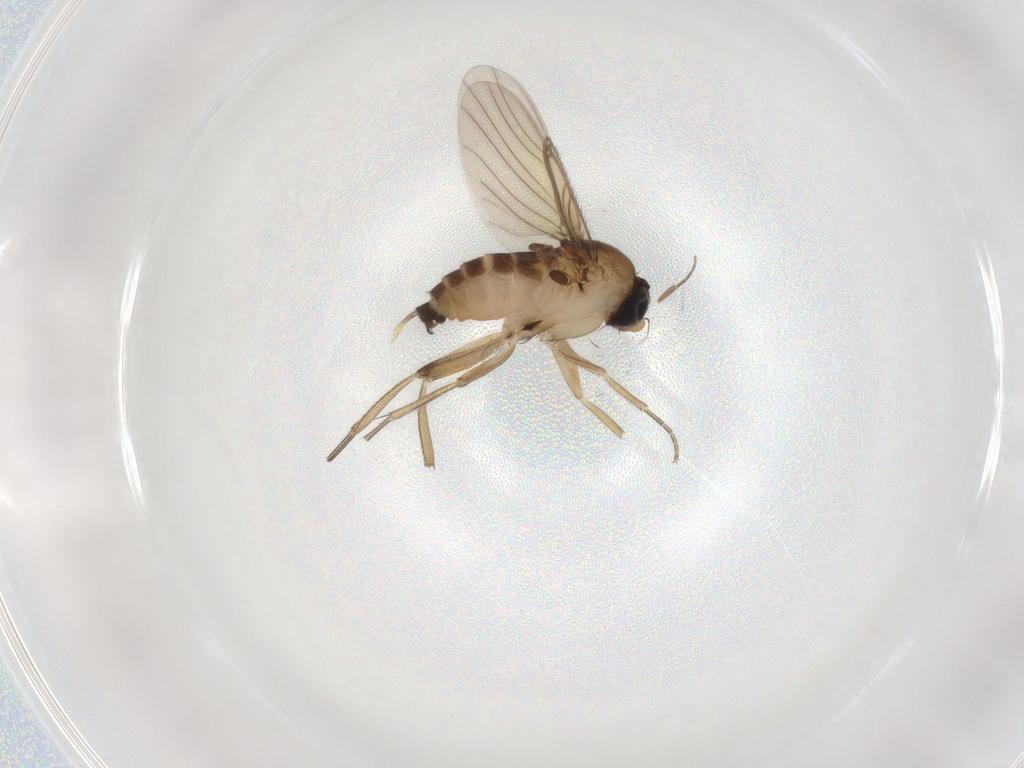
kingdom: Animalia
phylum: Arthropoda
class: Insecta
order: Diptera
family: Phoridae
